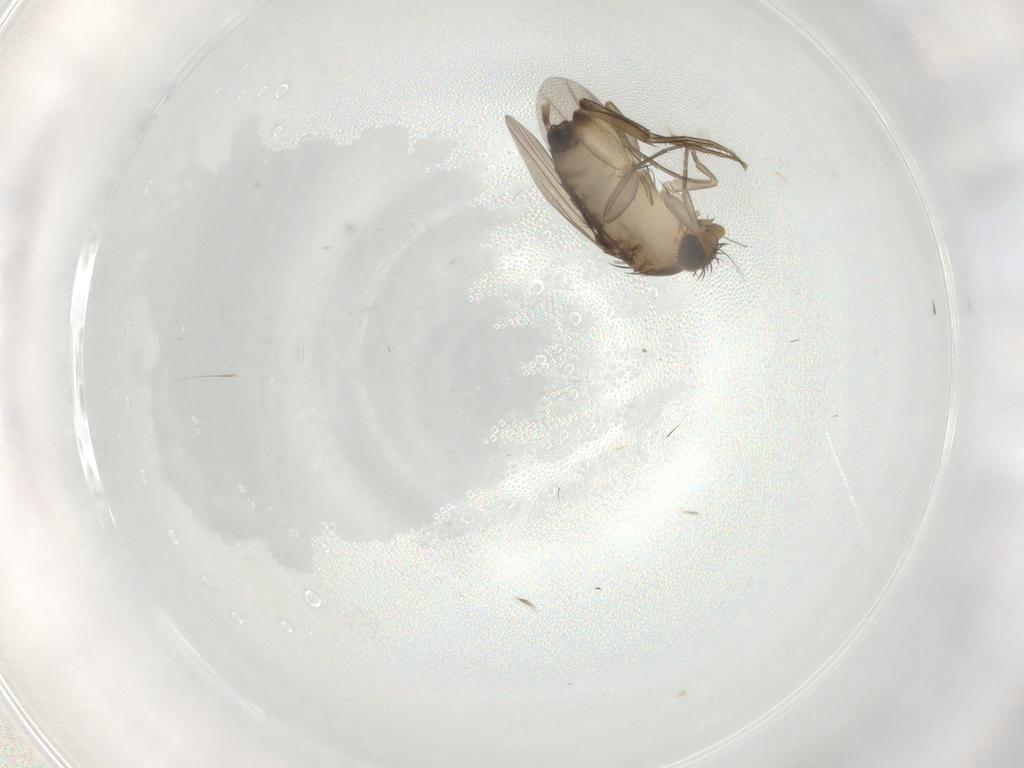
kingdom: Animalia
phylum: Arthropoda
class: Insecta
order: Diptera
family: Phoridae
